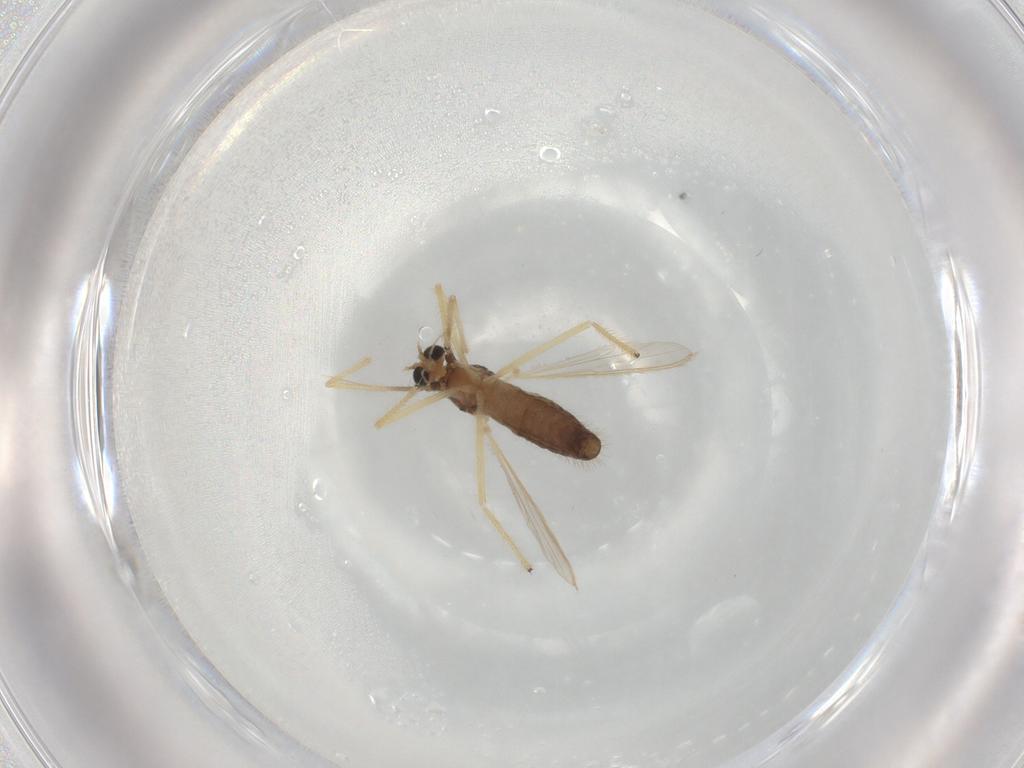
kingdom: Animalia
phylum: Arthropoda
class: Insecta
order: Diptera
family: Chironomidae
